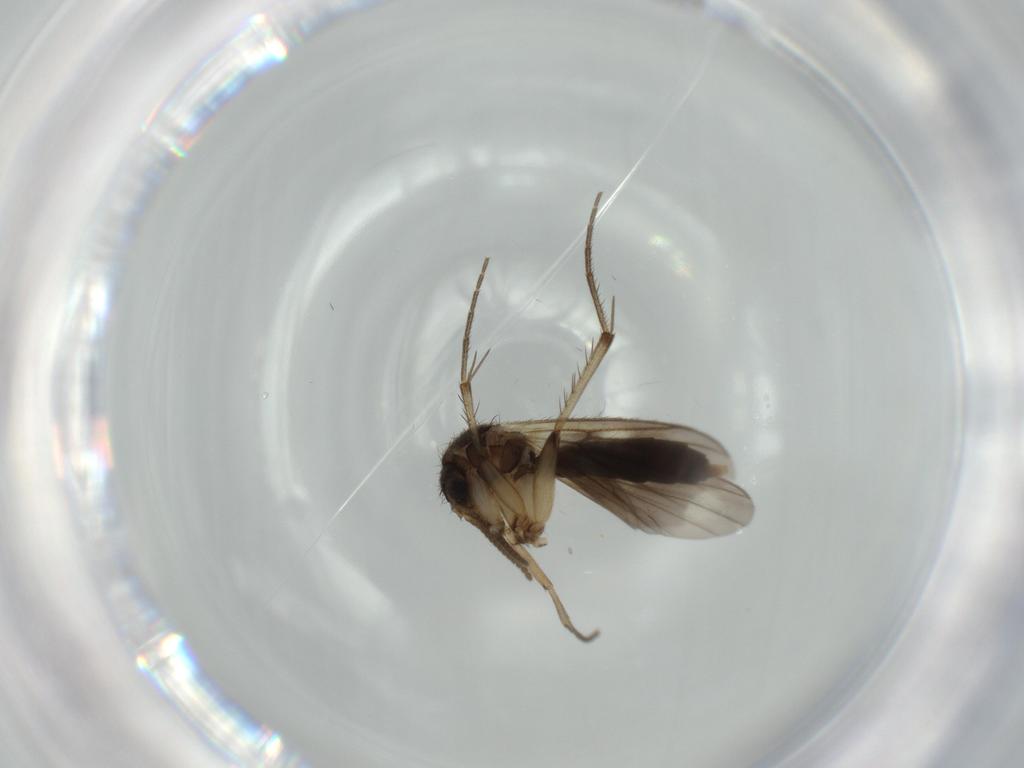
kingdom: Animalia
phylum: Arthropoda
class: Insecta
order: Diptera
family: Mycetophilidae
